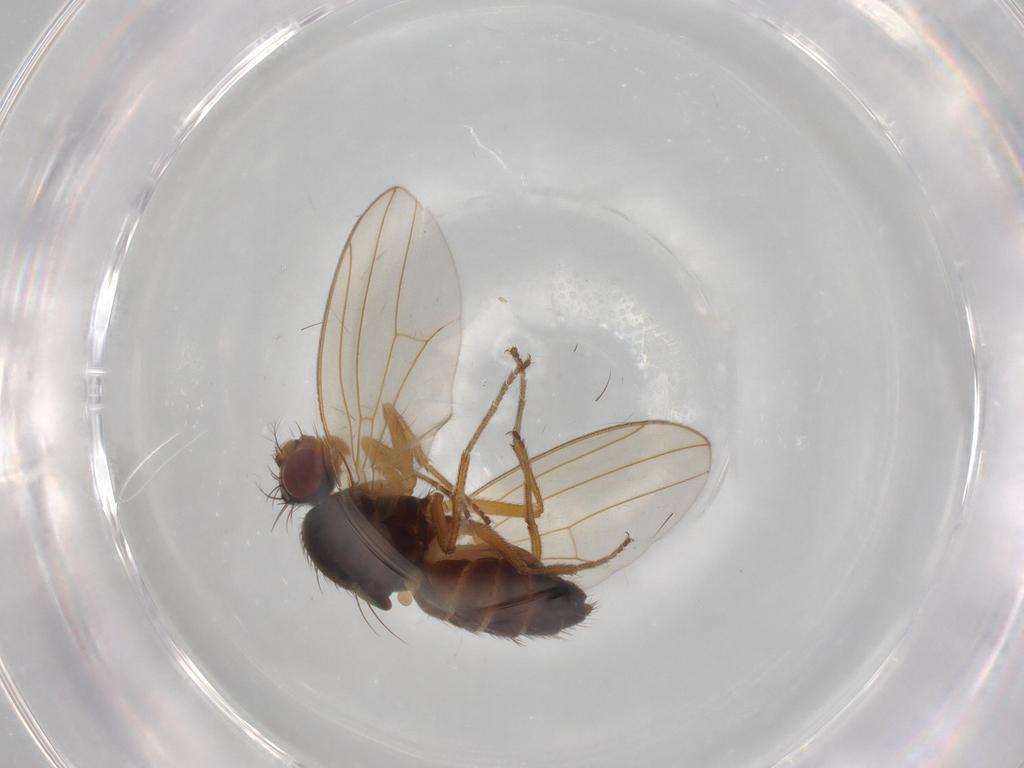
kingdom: Animalia
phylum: Arthropoda
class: Insecta
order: Diptera
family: Drosophilidae
